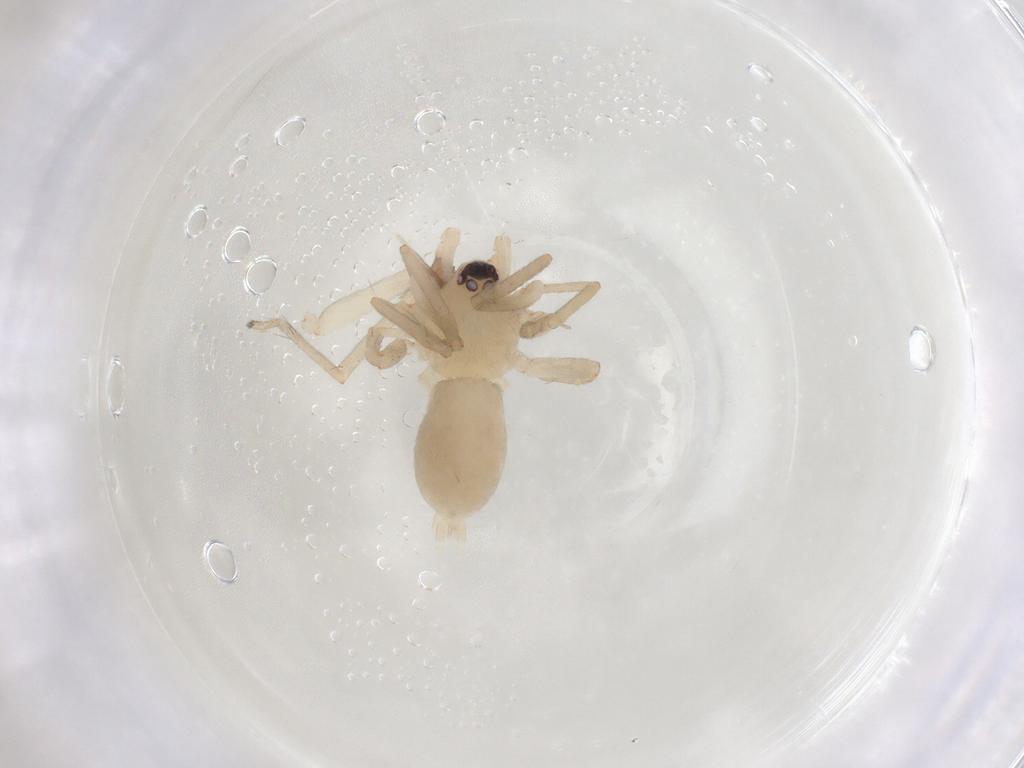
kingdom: Animalia
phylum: Arthropoda
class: Arachnida
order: Araneae
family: Gnaphosidae
